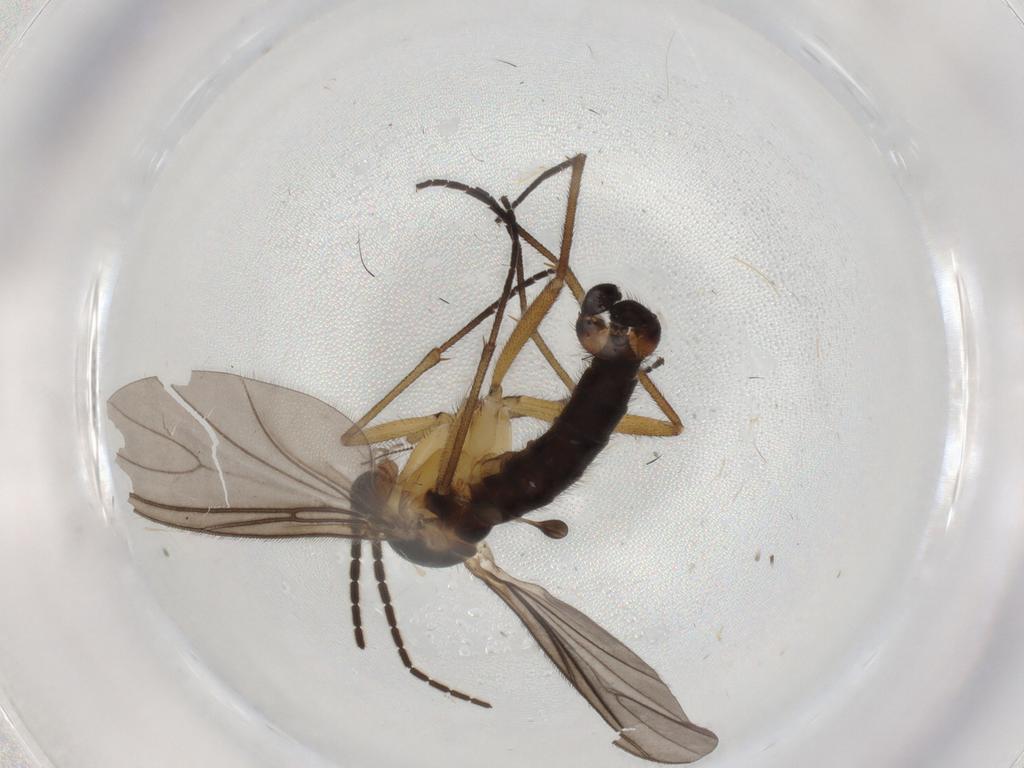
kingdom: Animalia
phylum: Arthropoda
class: Insecta
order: Diptera
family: Sciaridae
